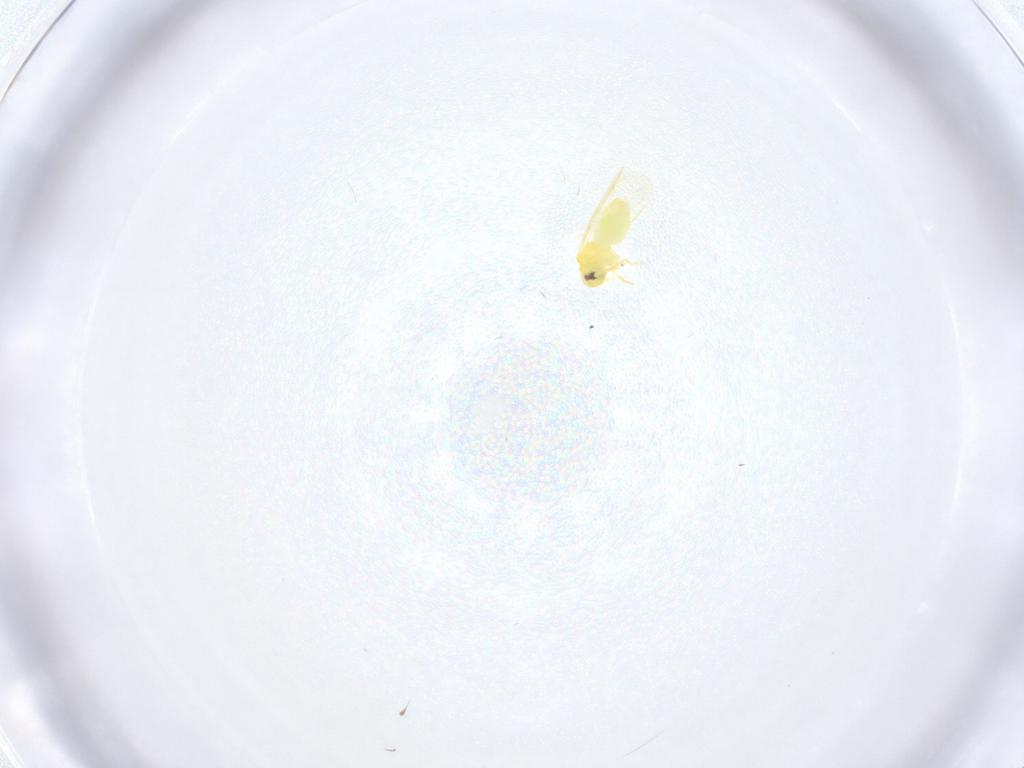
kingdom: Animalia
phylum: Arthropoda
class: Insecta
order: Hemiptera
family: Aleyrodidae
